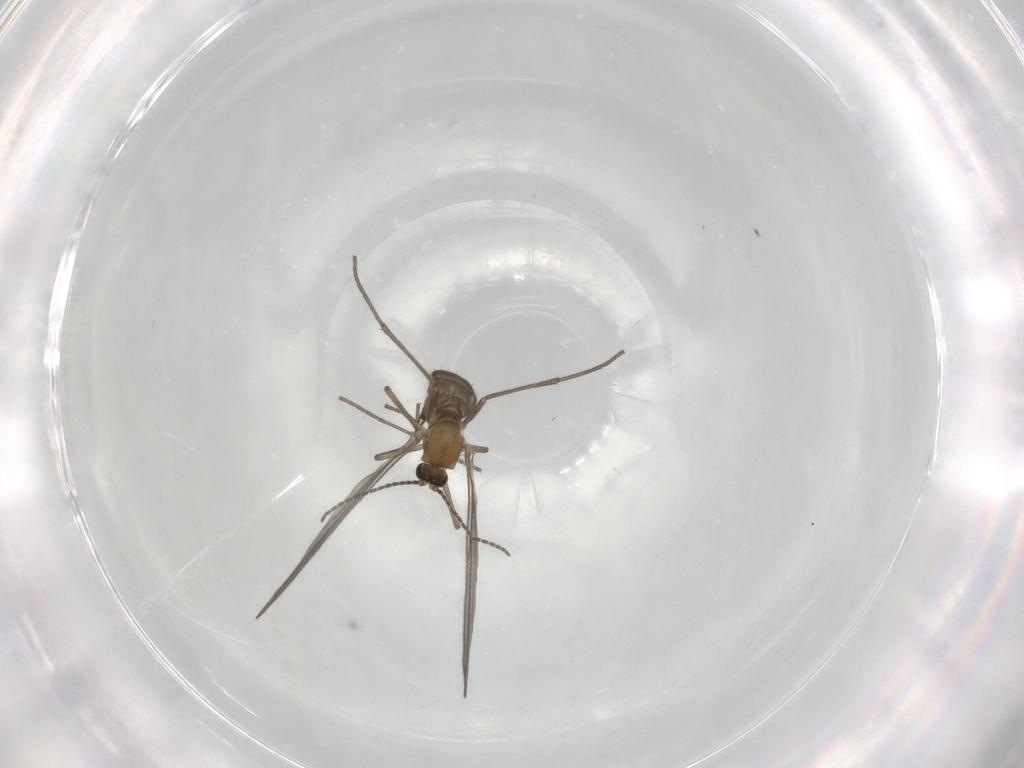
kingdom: Animalia
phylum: Arthropoda
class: Insecta
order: Diptera
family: Sciaridae
